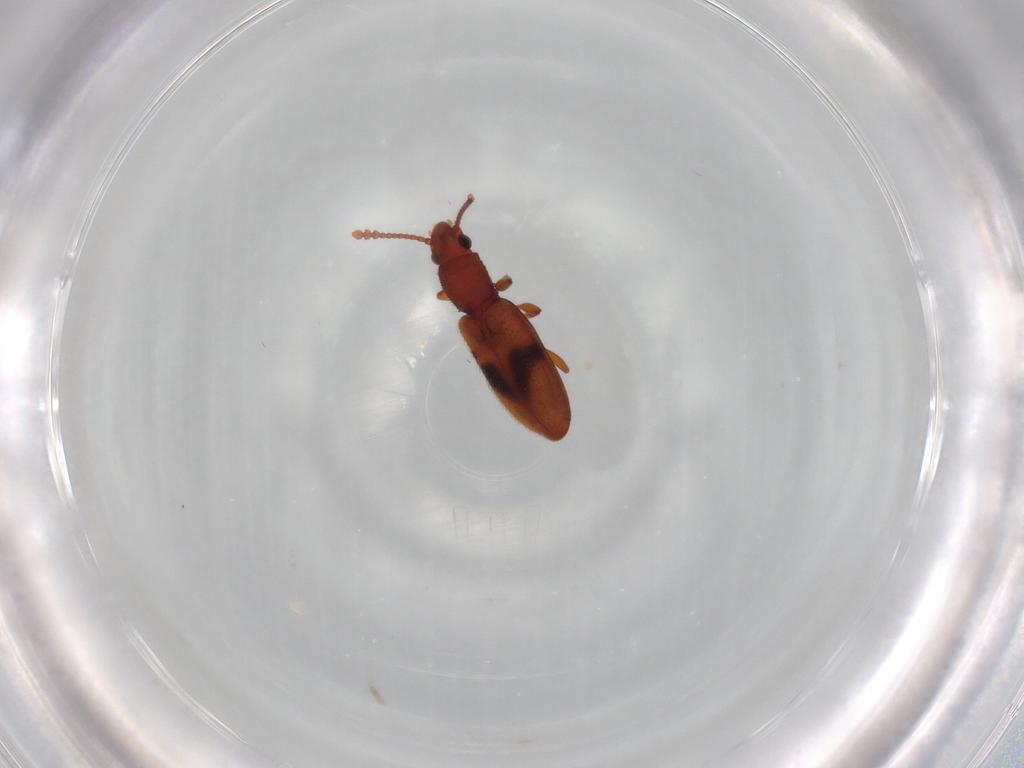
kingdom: Animalia
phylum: Arthropoda
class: Insecta
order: Coleoptera
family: Silvanidae
